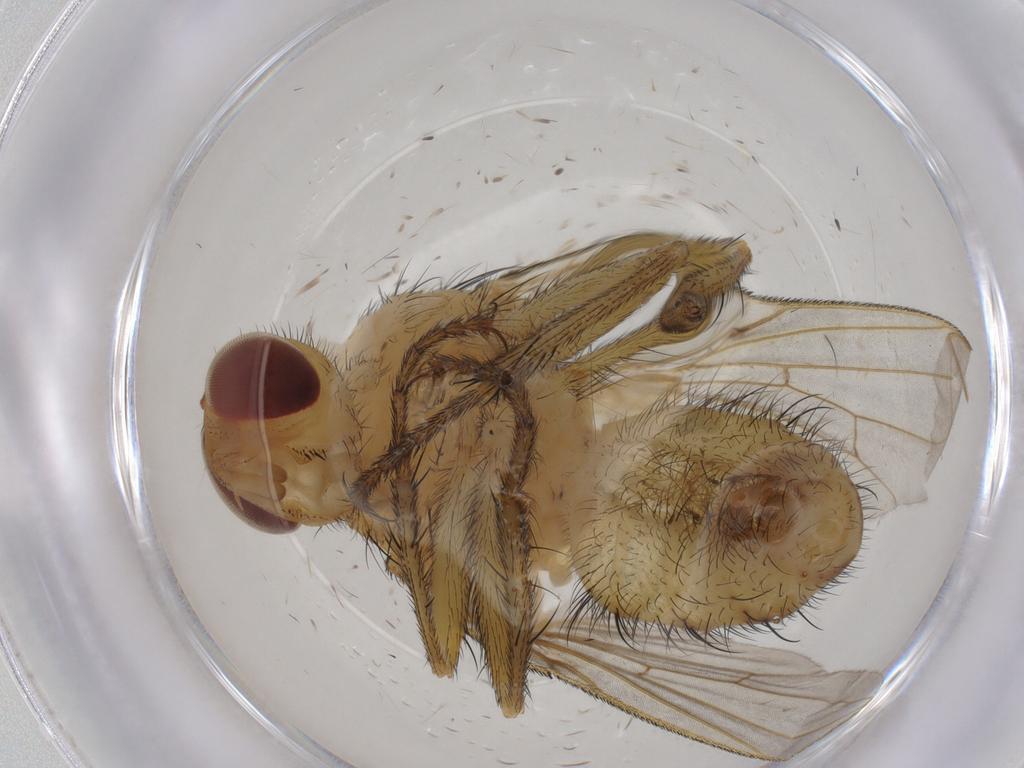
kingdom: Animalia
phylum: Arthropoda
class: Insecta
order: Diptera
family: Tachinidae
